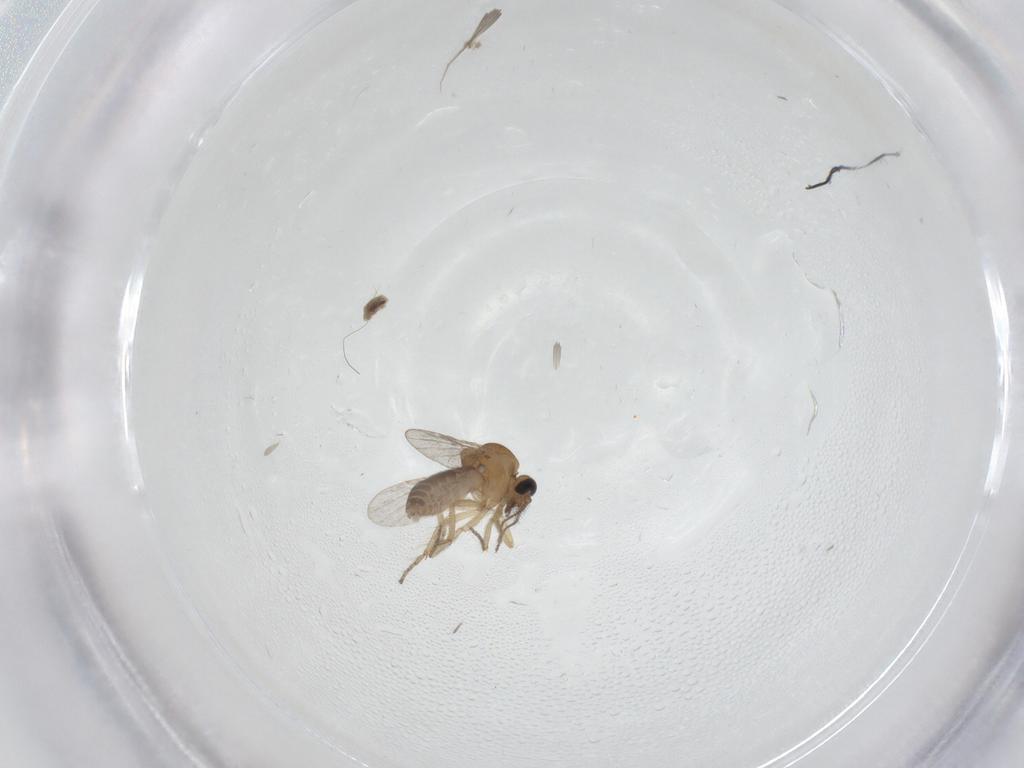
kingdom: Animalia
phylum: Arthropoda
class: Insecta
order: Diptera
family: Ceratopogonidae
